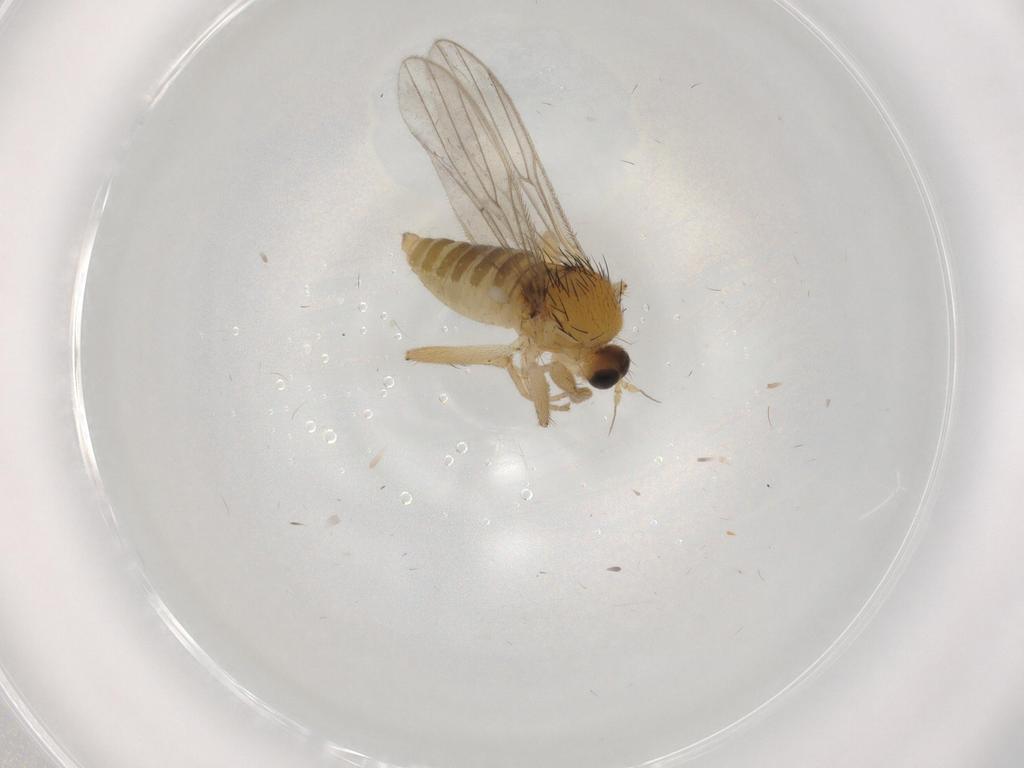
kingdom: Animalia
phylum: Arthropoda
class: Insecta
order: Diptera
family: Hybotidae
